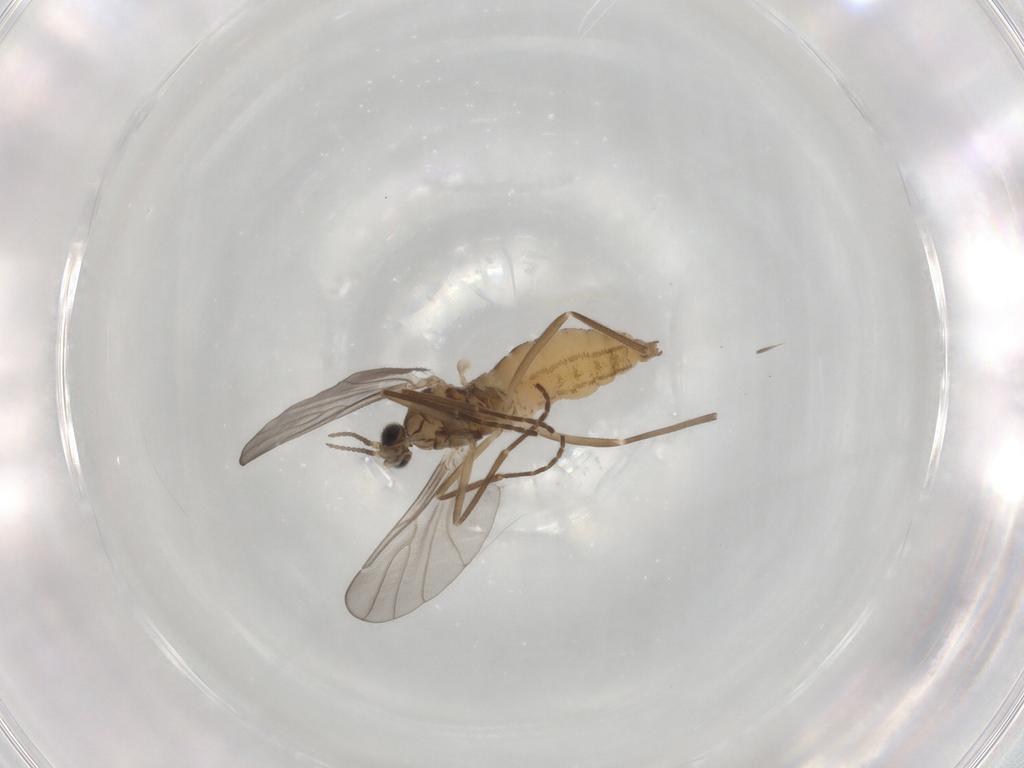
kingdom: Animalia
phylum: Arthropoda
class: Insecta
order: Diptera
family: Cecidomyiidae
